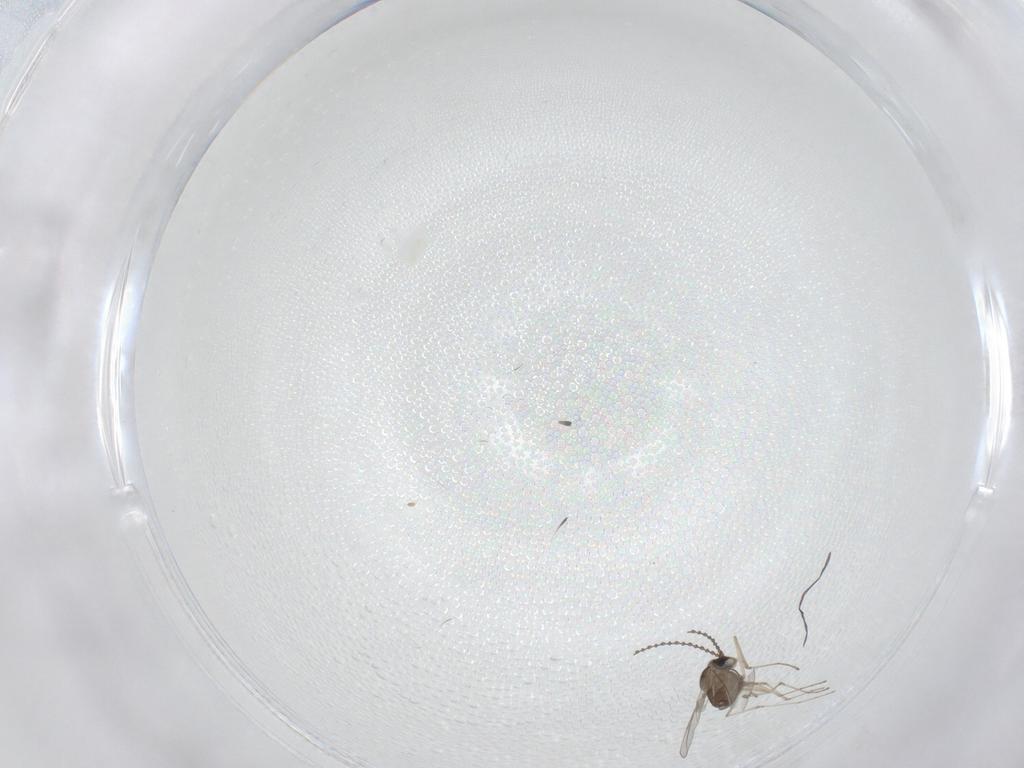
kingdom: Animalia
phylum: Arthropoda
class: Insecta
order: Diptera
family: Cecidomyiidae
